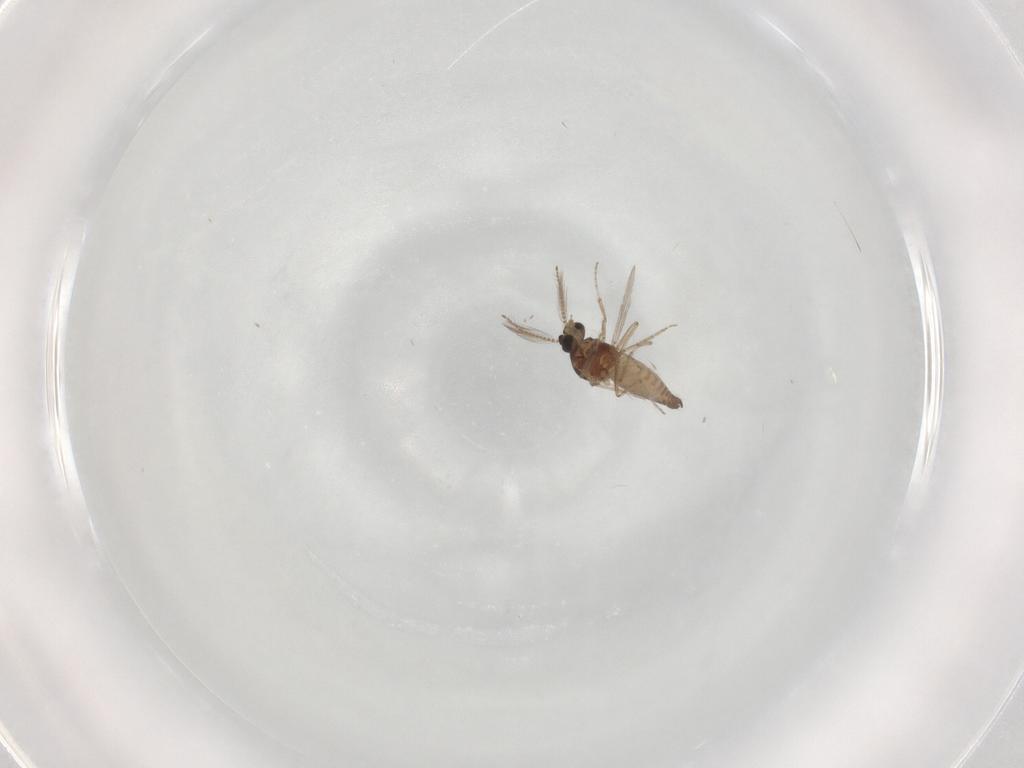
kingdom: Animalia
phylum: Arthropoda
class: Insecta
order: Diptera
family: Ceratopogonidae
